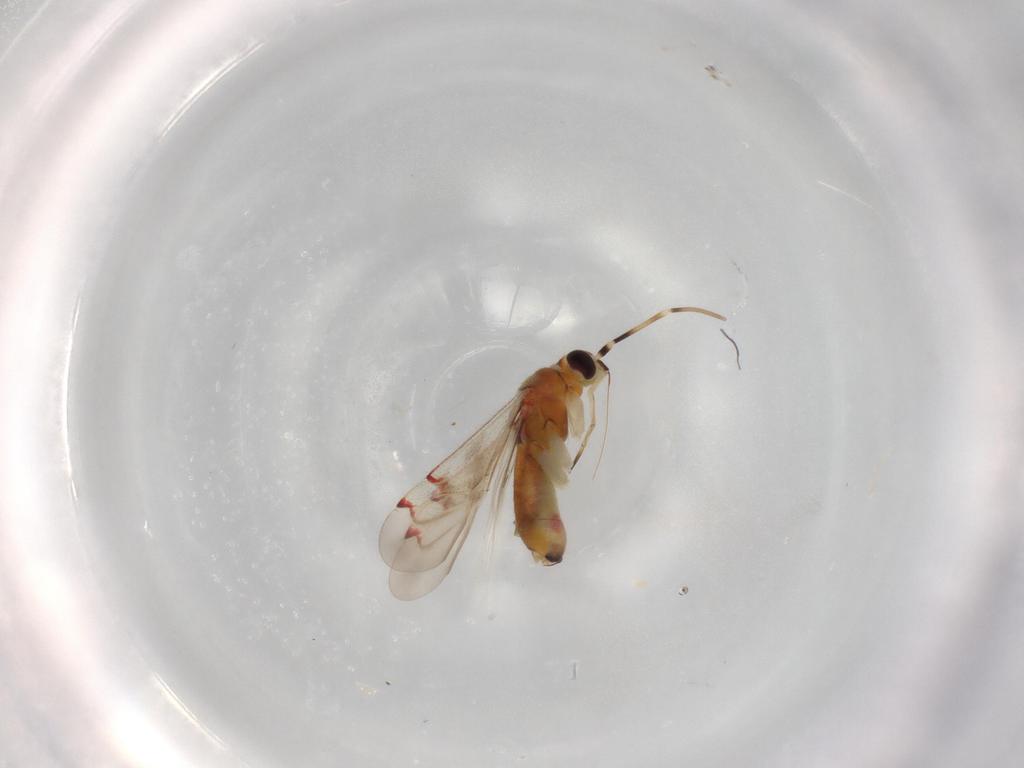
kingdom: Animalia
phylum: Arthropoda
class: Insecta
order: Hemiptera
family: Miridae
